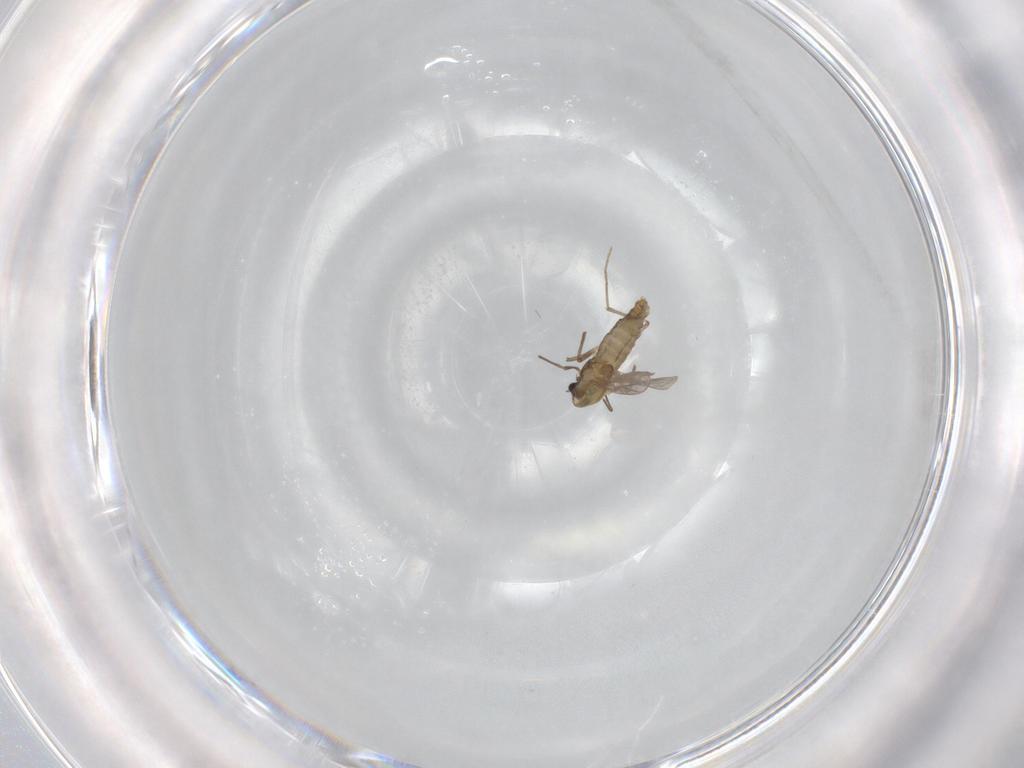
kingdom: Animalia
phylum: Arthropoda
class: Insecta
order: Diptera
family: Chironomidae
